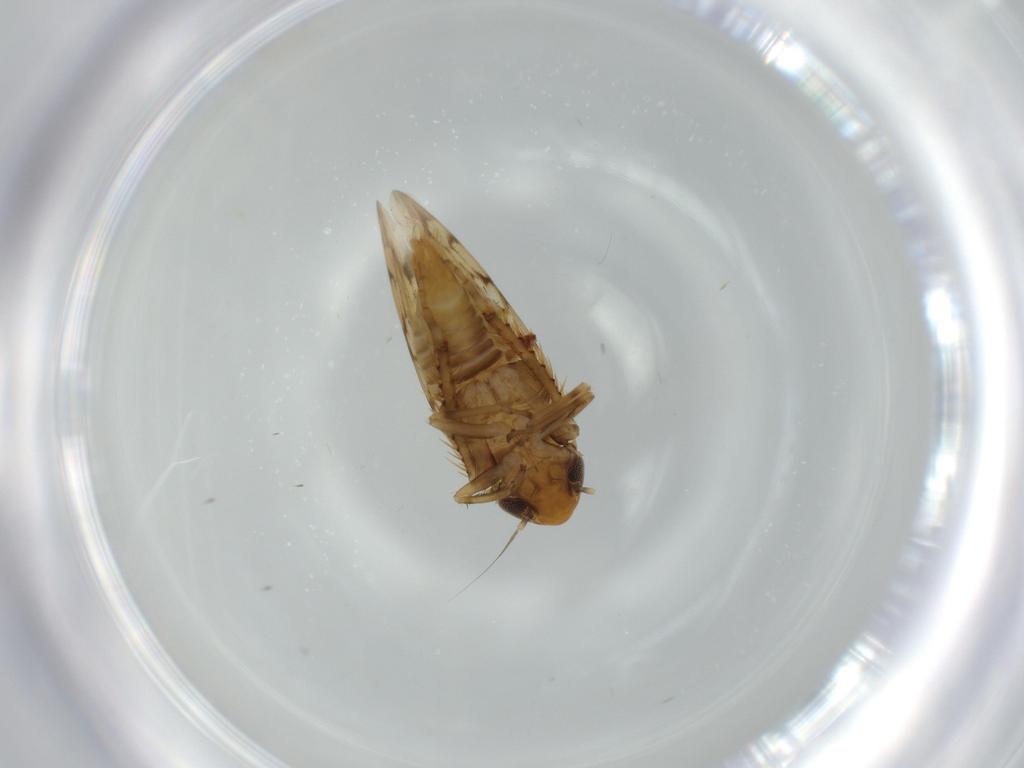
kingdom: Animalia
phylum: Arthropoda
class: Insecta
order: Hemiptera
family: Cicadellidae
